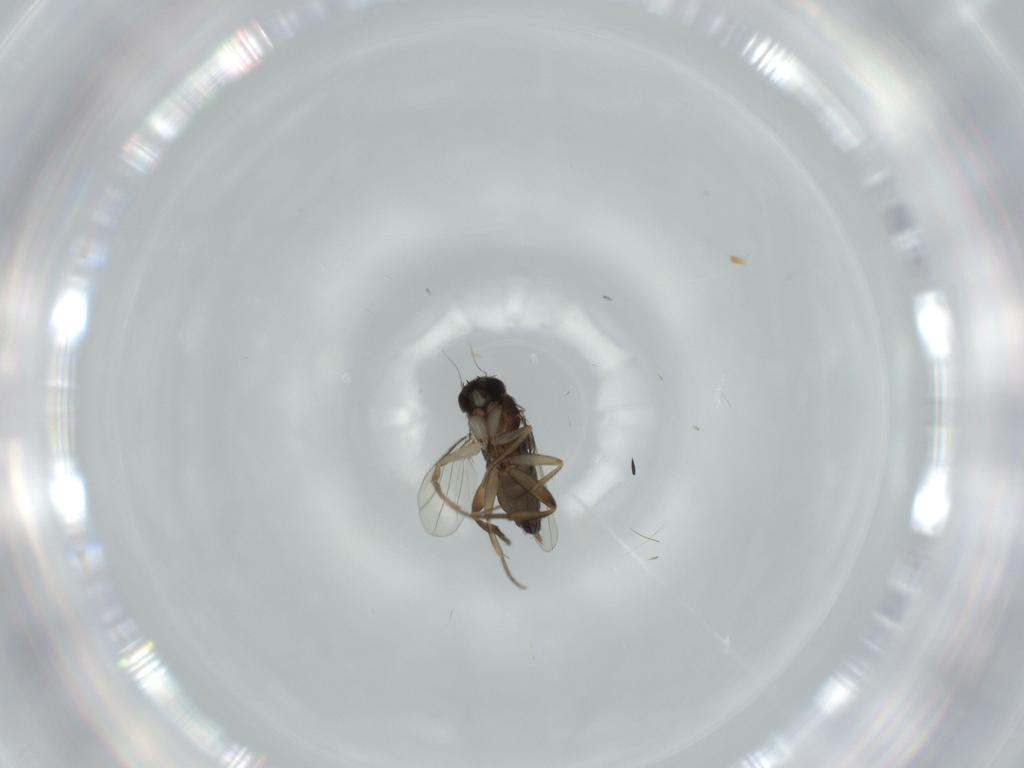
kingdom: Animalia
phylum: Arthropoda
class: Insecta
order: Diptera
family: Phoridae
